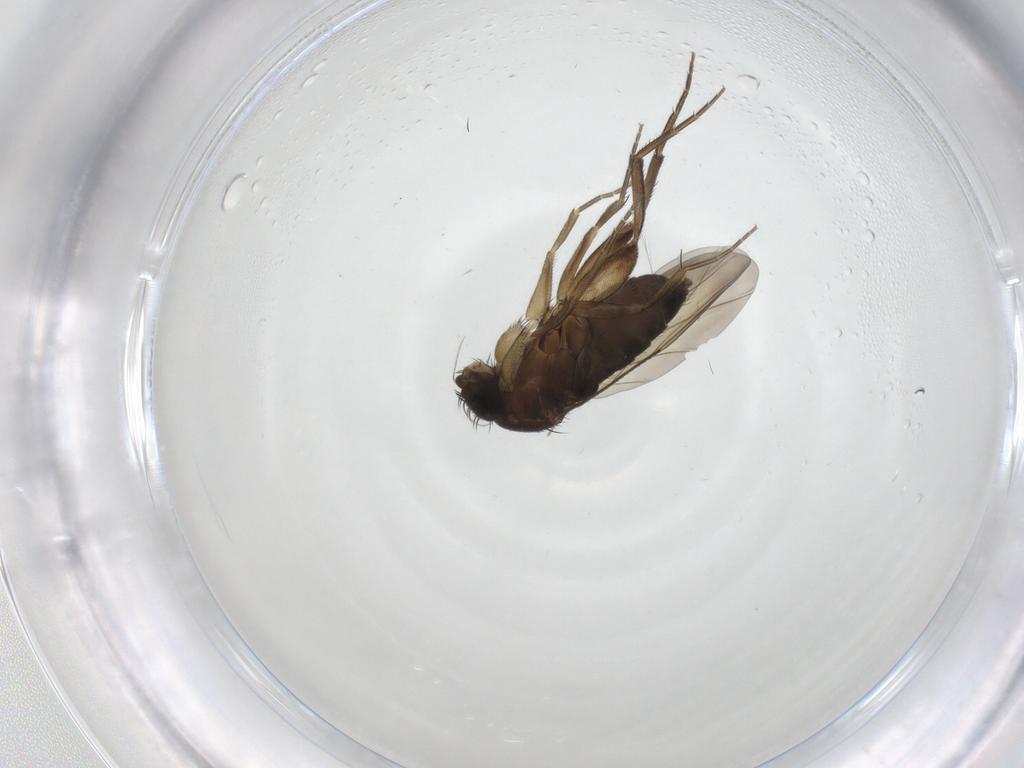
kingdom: Animalia
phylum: Arthropoda
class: Insecta
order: Diptera
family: Phoridae
